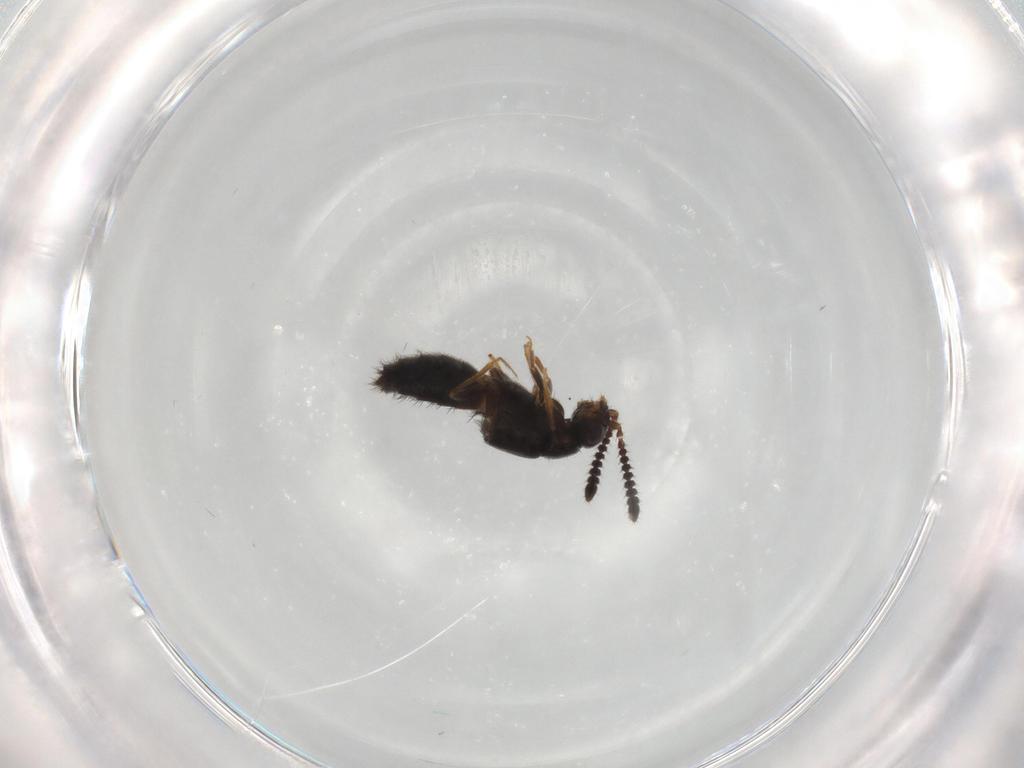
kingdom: Animalia
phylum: Arthropoda
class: Insecta
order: Coleoptera
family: Staphylinidae
